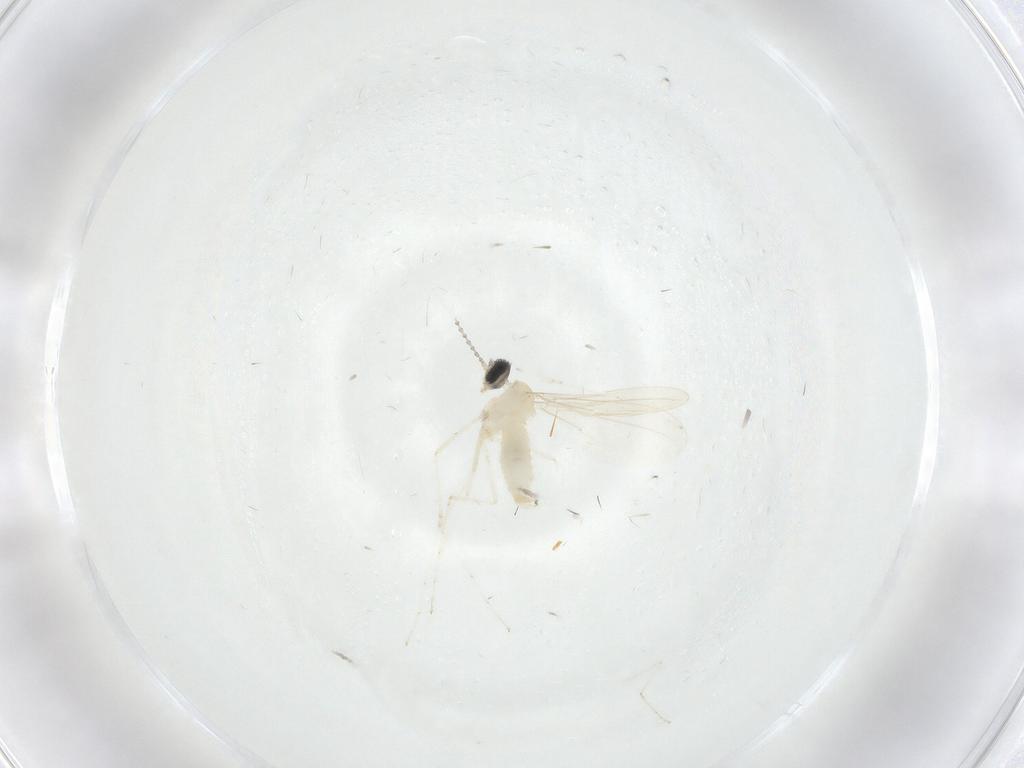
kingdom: Animalia
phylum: Arthropoda
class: Insecta
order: Diptera
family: Cecidomyiidae
